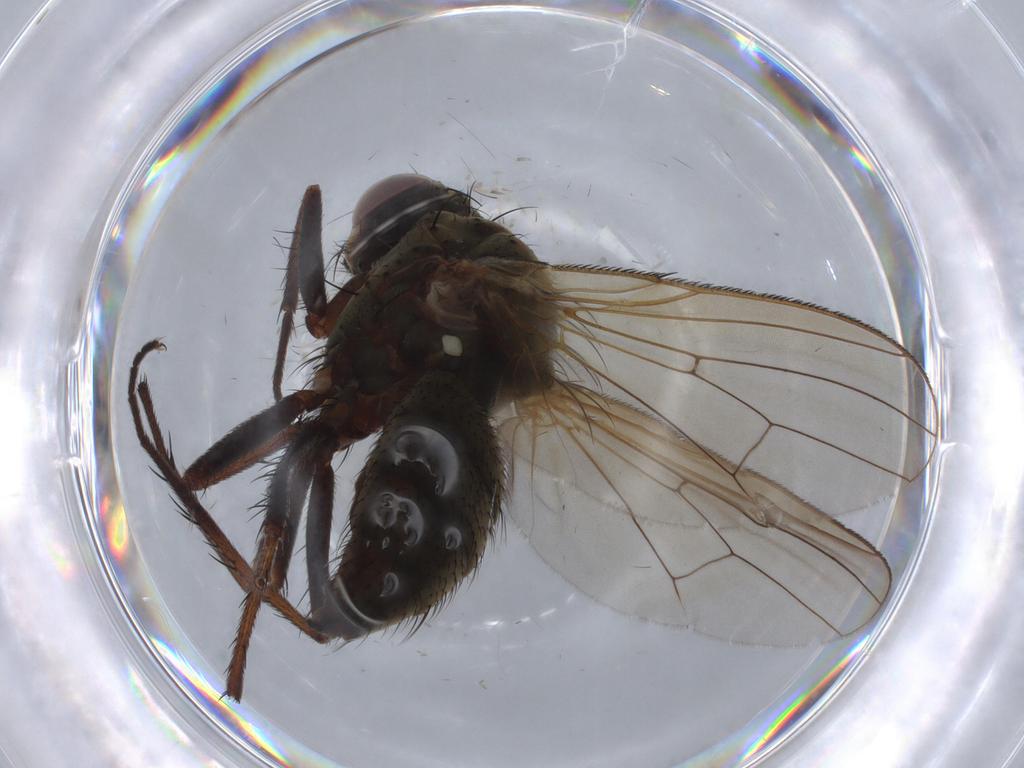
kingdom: Animalia
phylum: Arthropoda
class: Insecta
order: Diptera
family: Anthomyiidae
